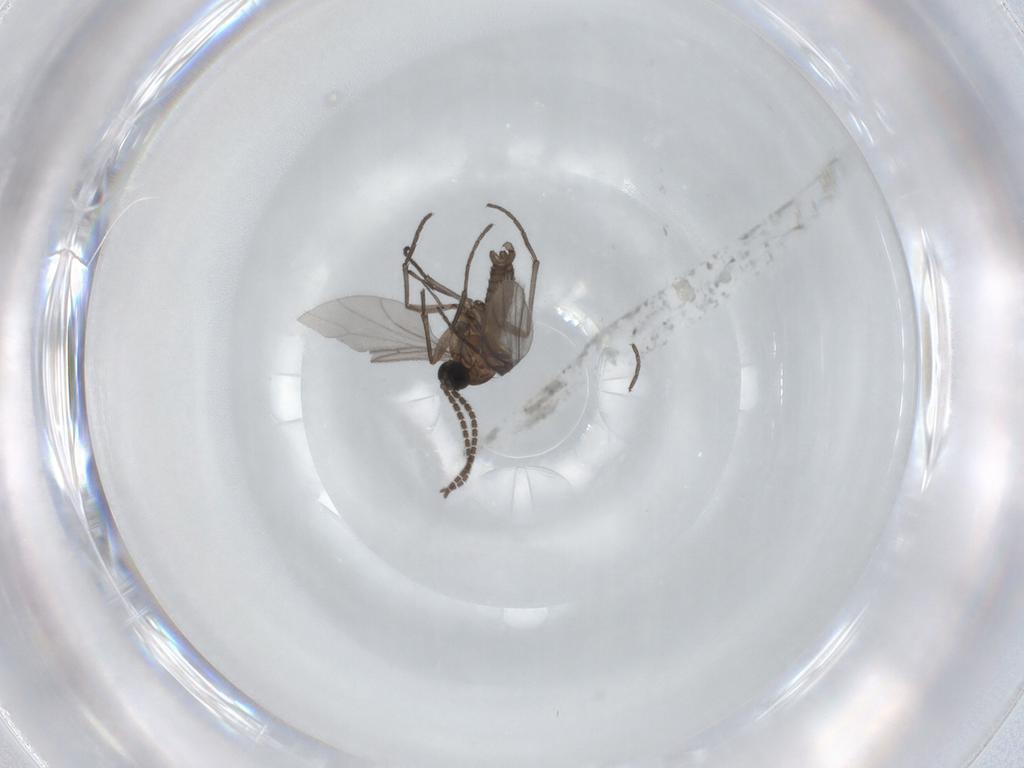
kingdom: Animalia
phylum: Arthropoda
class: Insecta
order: Diptera
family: Sciaridae
